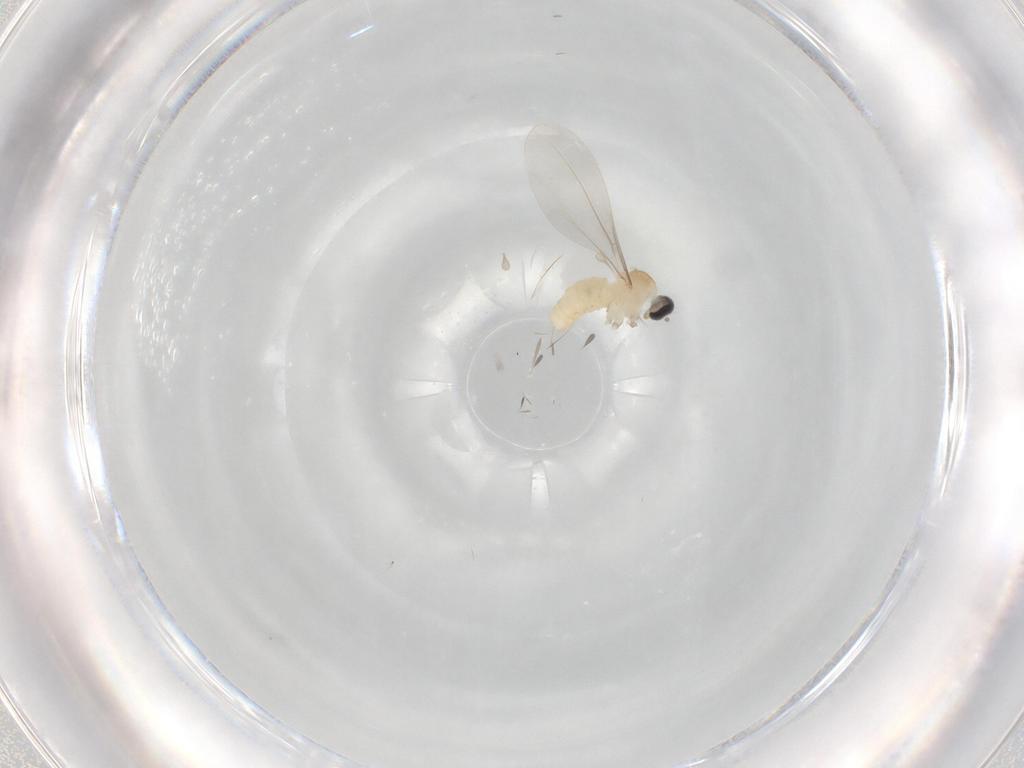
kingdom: Animalia
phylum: Arthropoda
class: Insecta
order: Diptera
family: Cecidomyiidae
